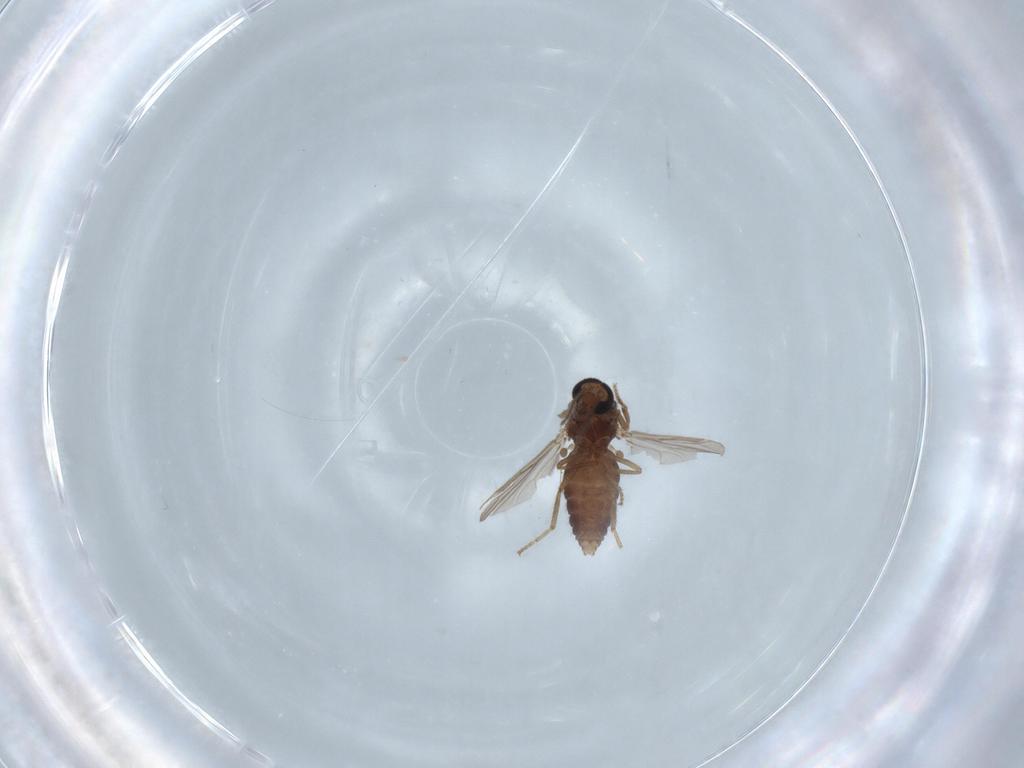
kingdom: Animalia
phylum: Arthropoda
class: Insecta
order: Diptera
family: Ceratopogonidae
